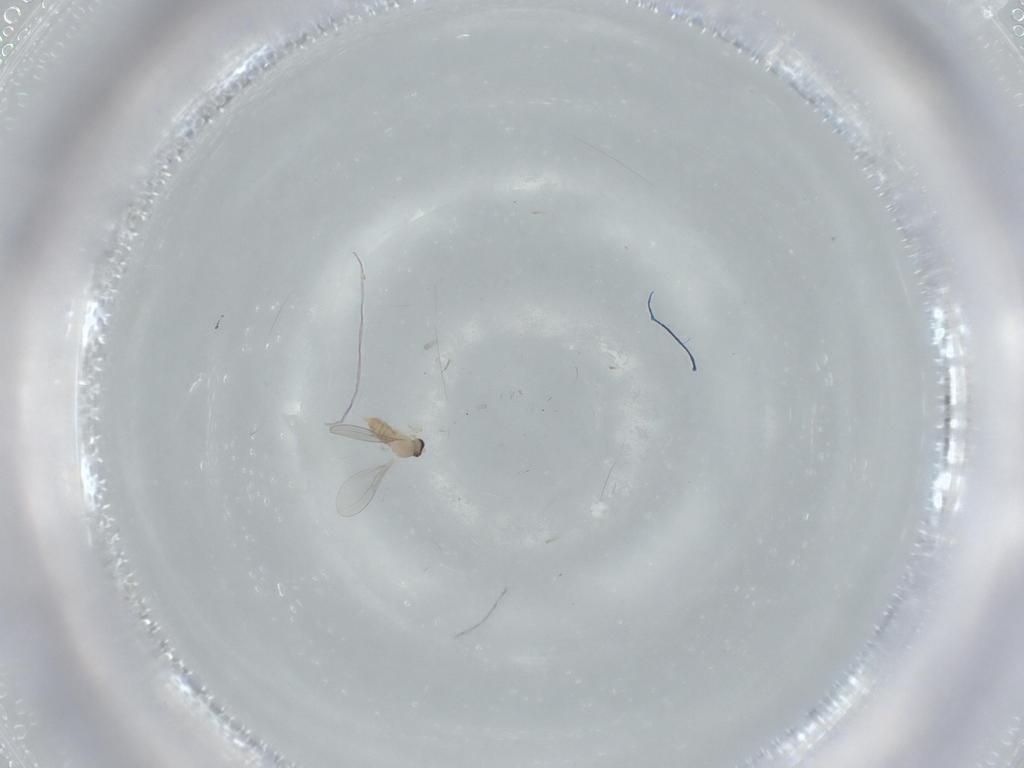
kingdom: Animalia
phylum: Arthropoda
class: Insecta
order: Diptera
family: Cecidomyiidae
